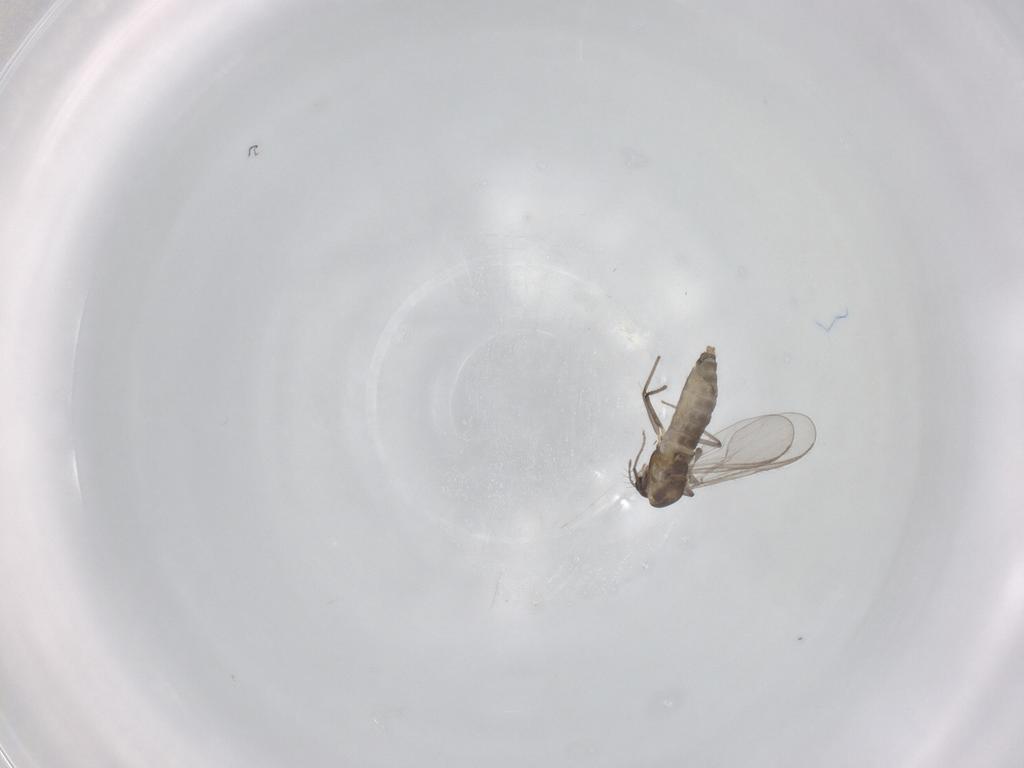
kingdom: Animalia
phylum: Arthropoda
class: Insecta
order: Diptera
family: Chironomidae
